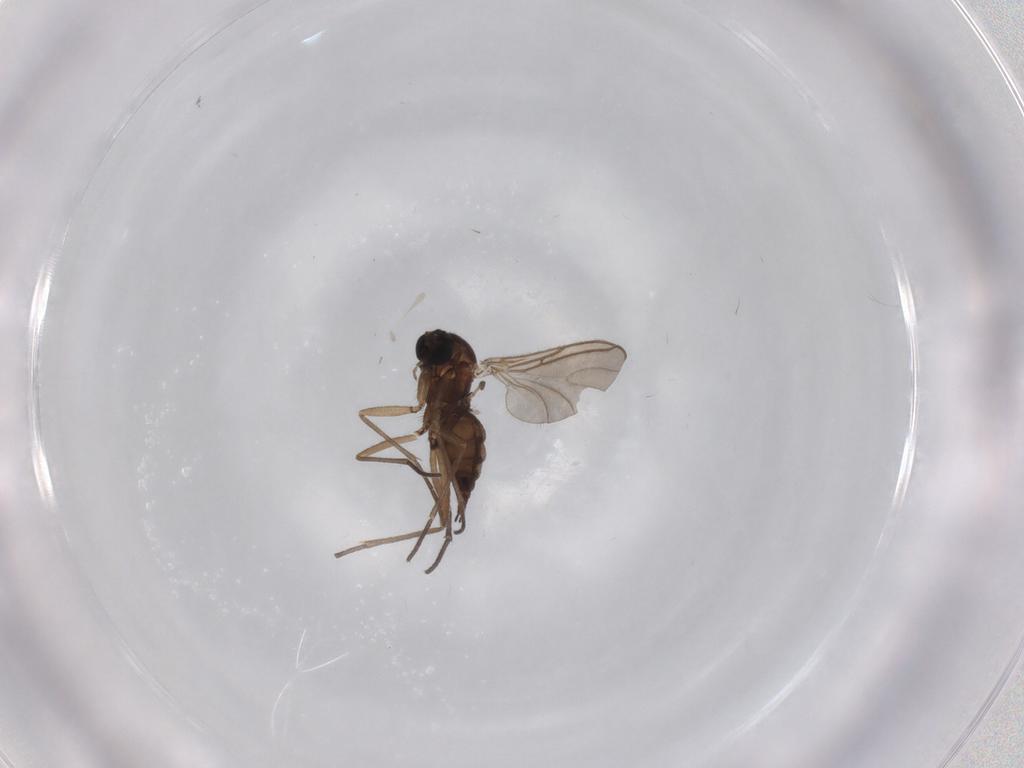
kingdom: Animalia
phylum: Arthropoda
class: Insecta
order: Diptera
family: Sciaridae
